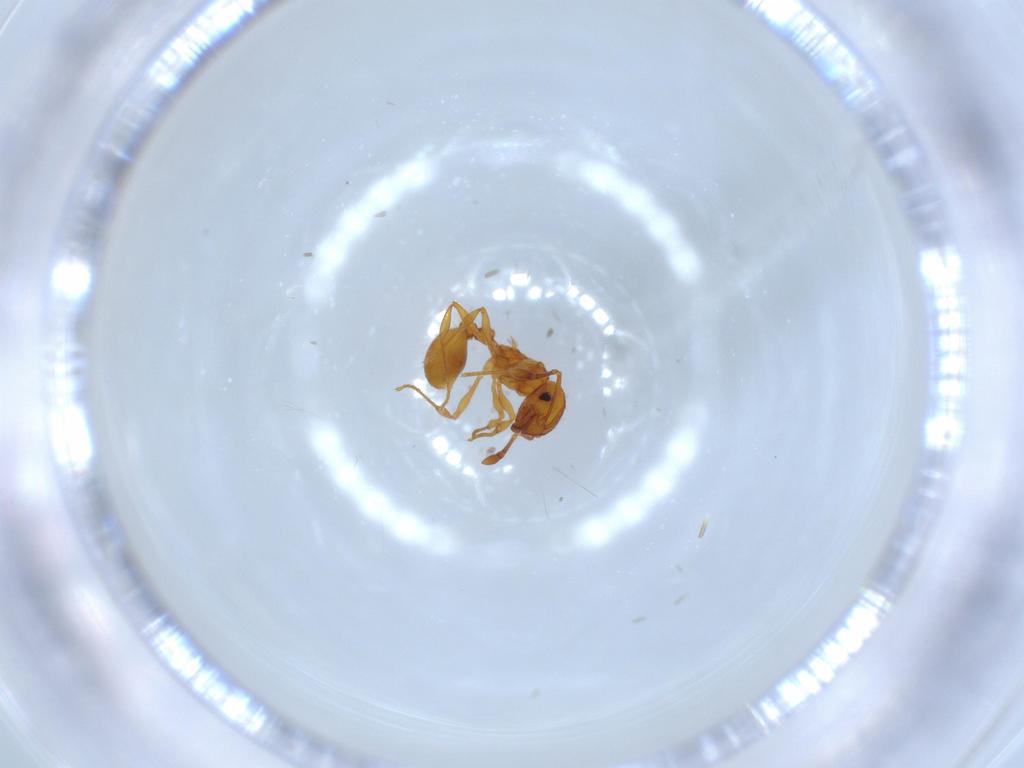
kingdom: Animalia
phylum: Arthropoda
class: Insecta
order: Hymenoptera
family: Formicidae
